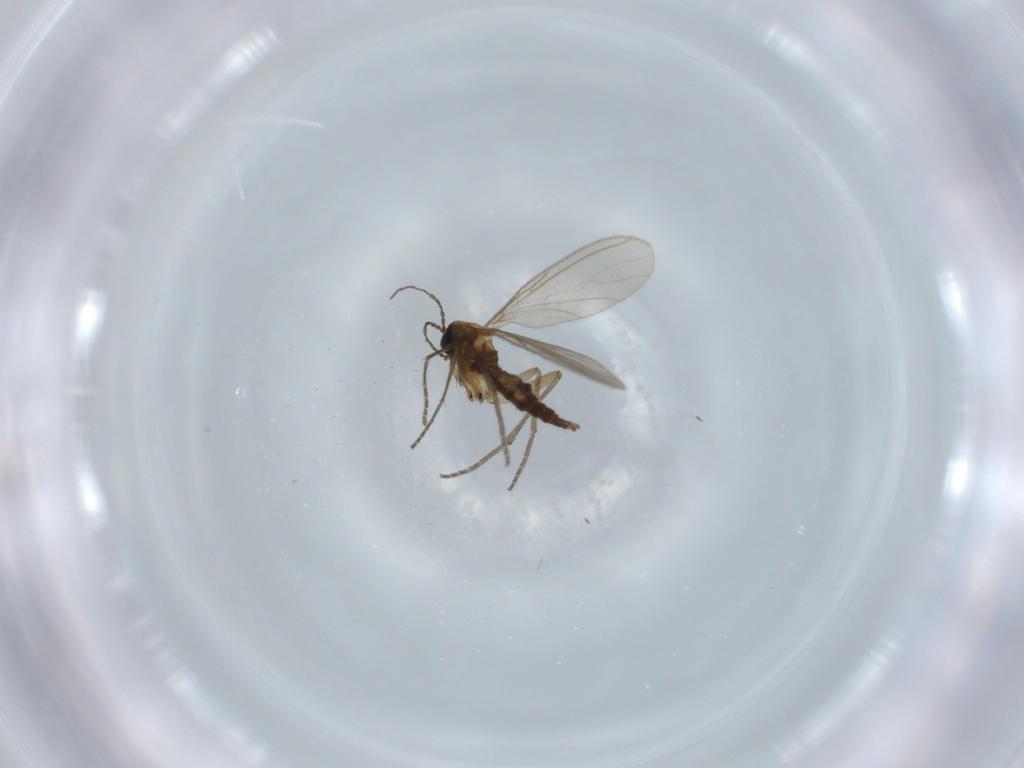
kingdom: Animalia
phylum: Arthropoda
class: Insecta
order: Diptera
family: Sciaridae
